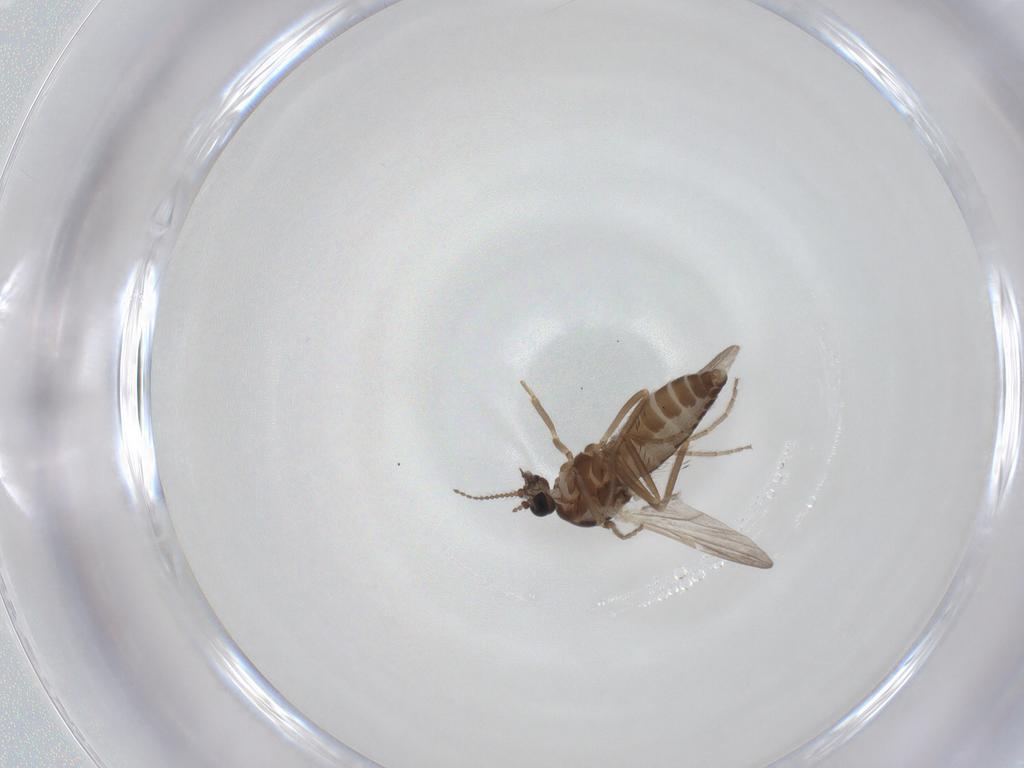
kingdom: Animalia
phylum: Arthropoda
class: Insecta
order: Diptera
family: Ceratopogonidae
